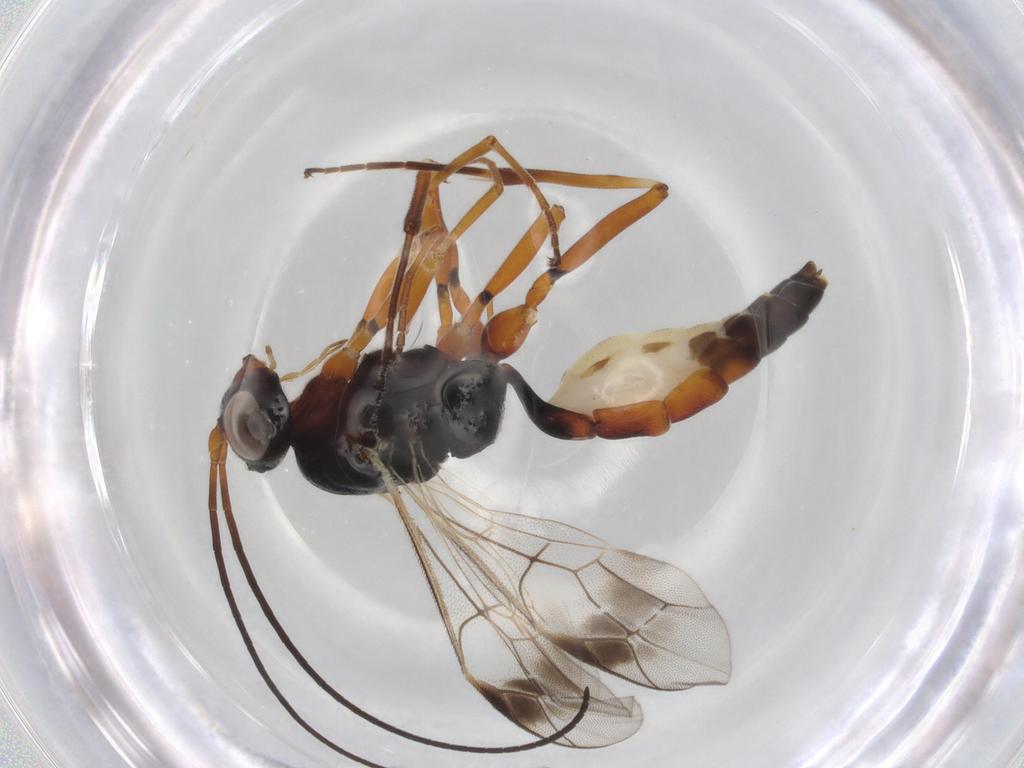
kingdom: Animalia
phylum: Arthropoda
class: Insecta
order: Hymenoptera
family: Ichneumonidae
